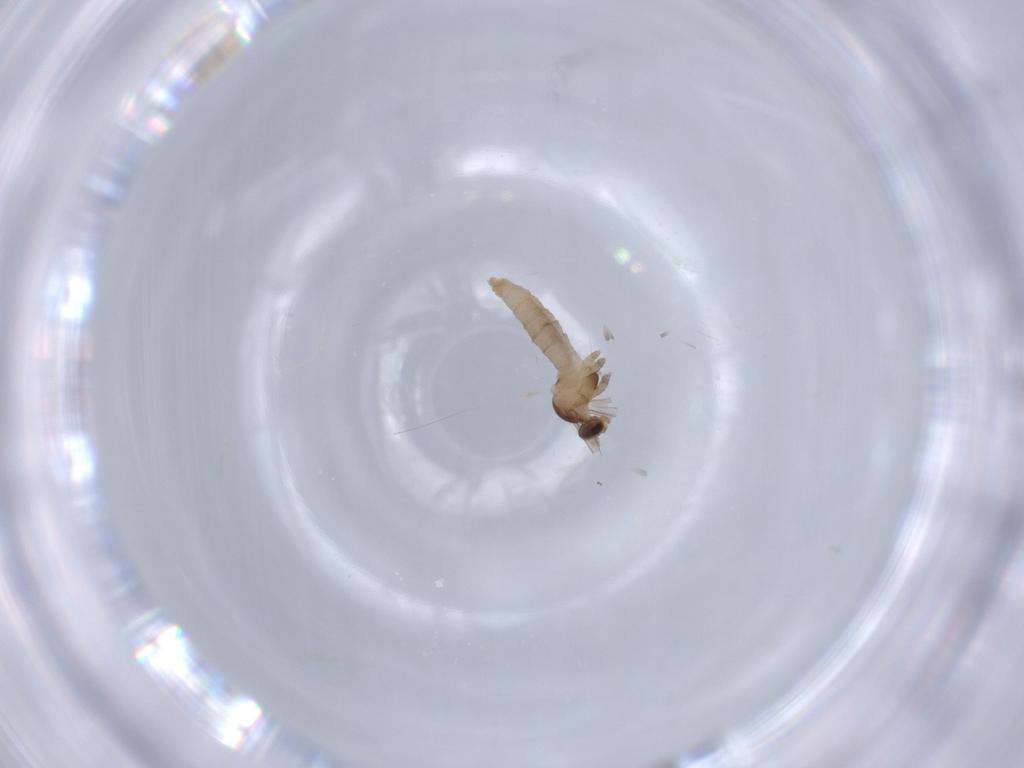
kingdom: Animalia
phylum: Arthropoda
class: Insecta
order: Diptera
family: Cecidomyiidae
